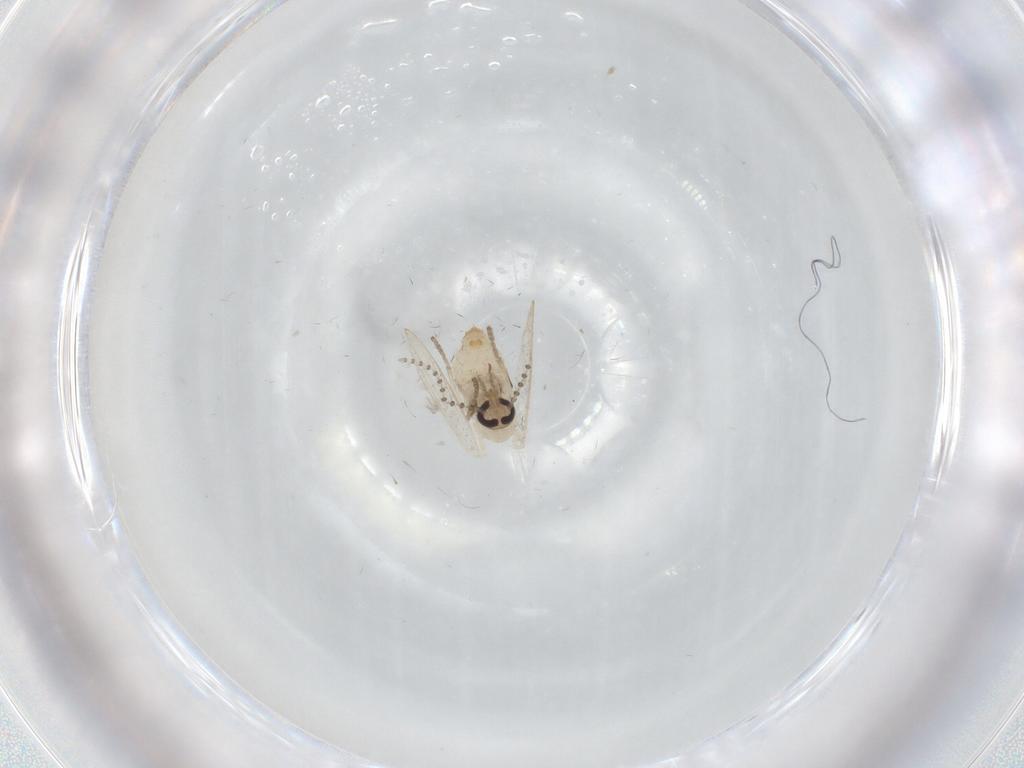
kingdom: Animalia
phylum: Arthropoda
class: Insecta
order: Diptera
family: Psychodidae
